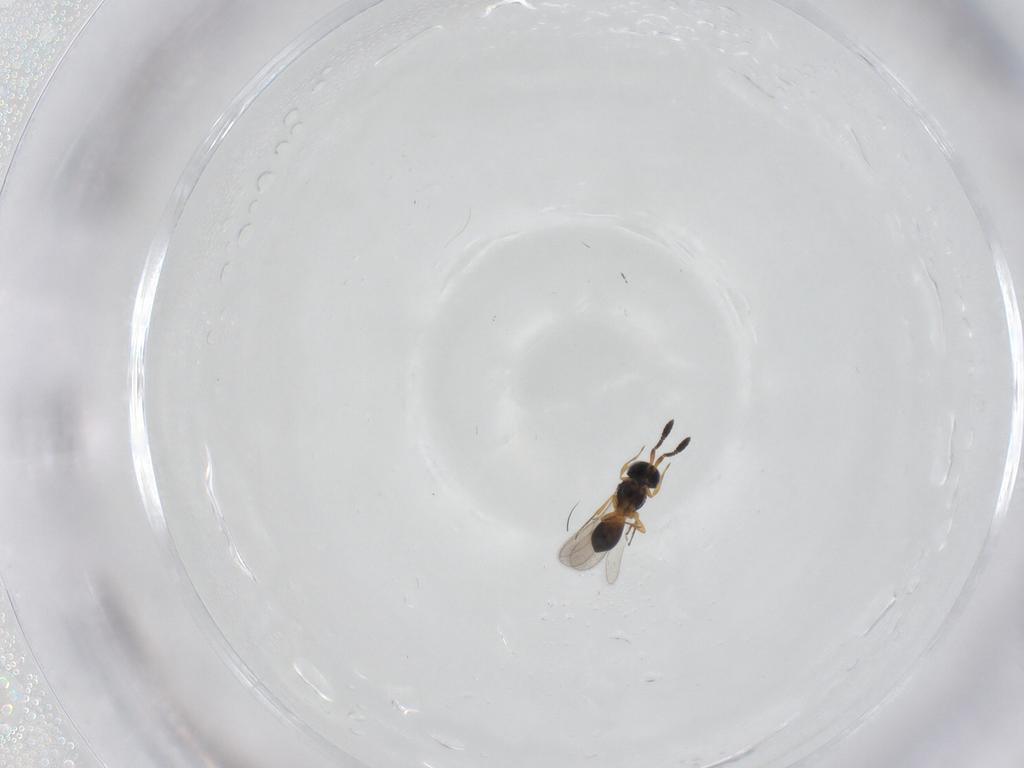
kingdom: Animalia
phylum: Arthropoda
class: Insecta
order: Hymenoptera
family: Scelionidae
